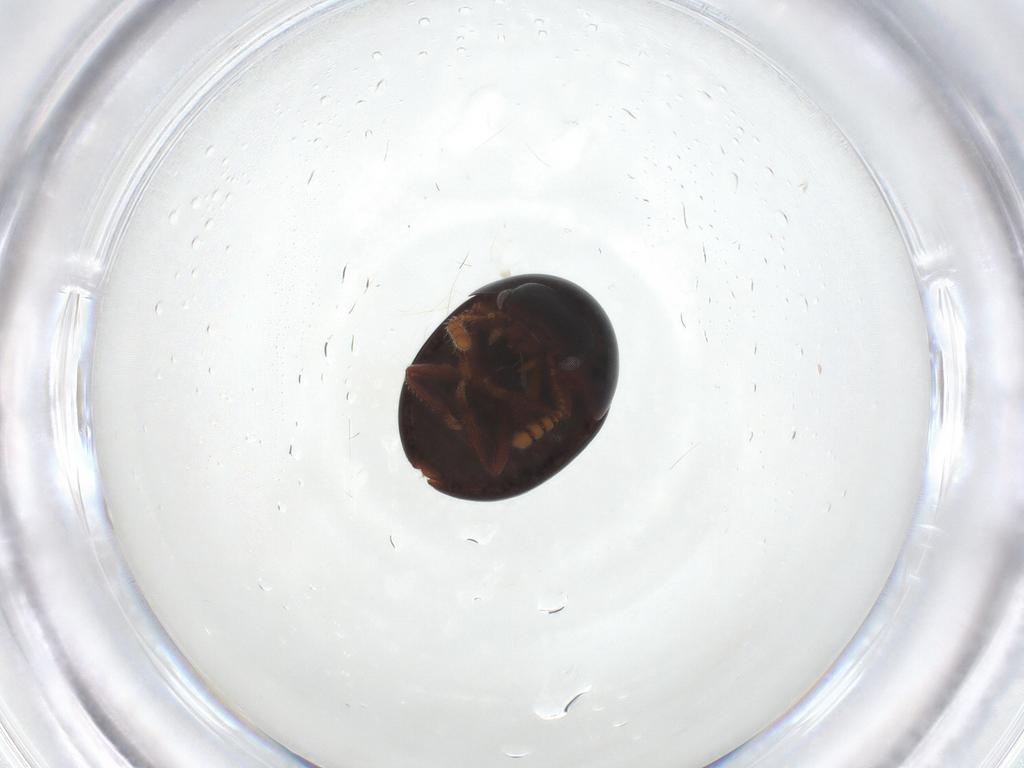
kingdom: Animalia
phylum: Arthropoda
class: Insecta
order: Coleoptera
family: Leiodidae
